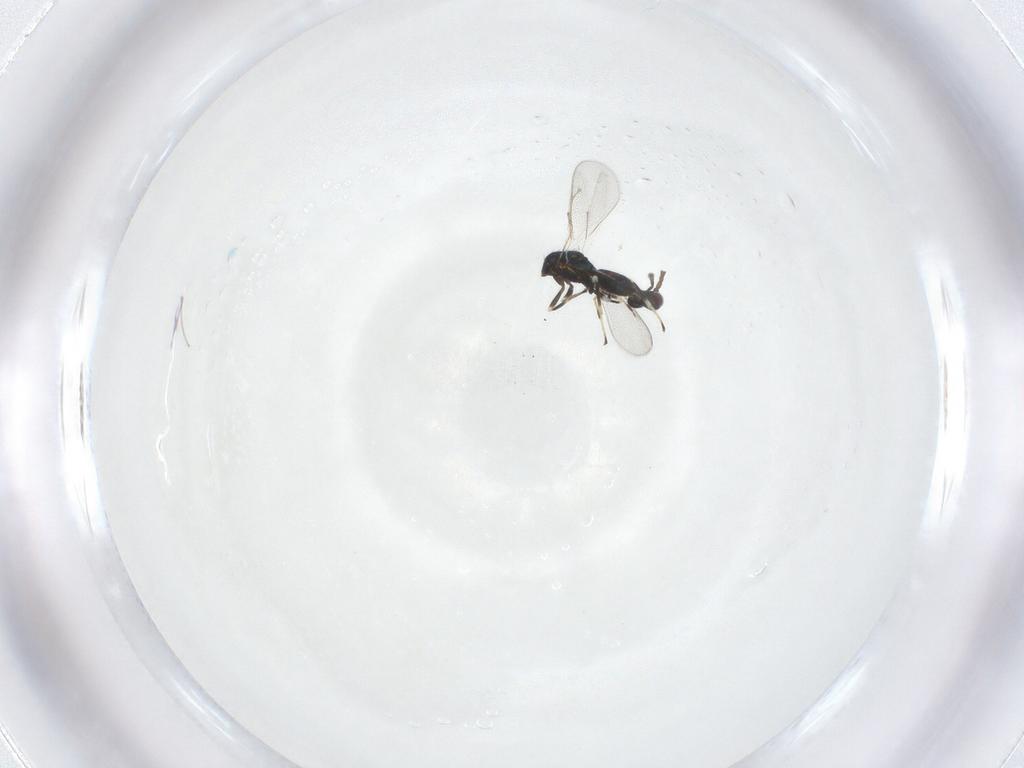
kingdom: Animalia
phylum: Arthropoda
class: Insecta
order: Hymenoptera
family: Eulophidae
